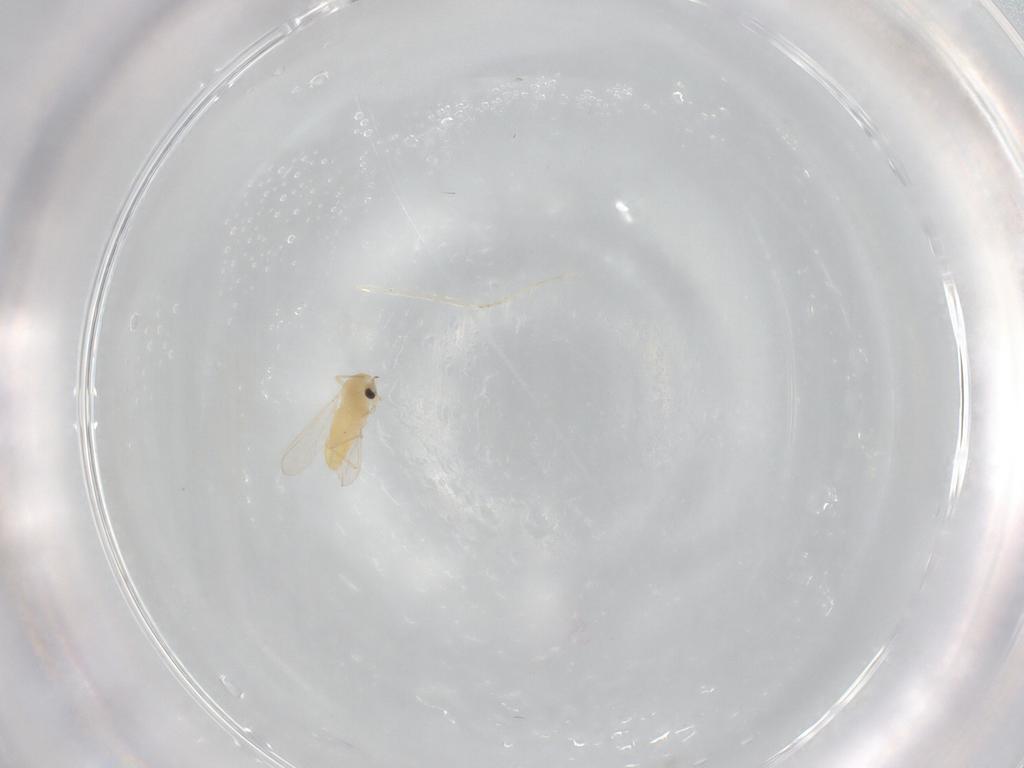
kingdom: Animalia
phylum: Arthropoda
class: Insecta
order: Diptera
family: Chironomidae
